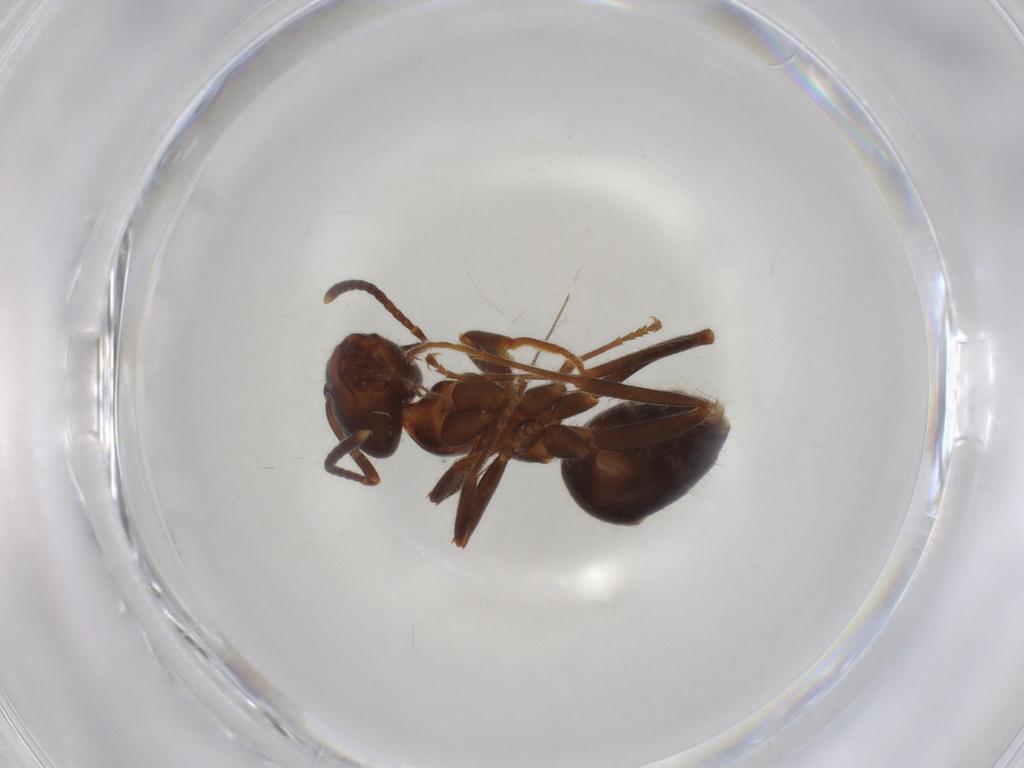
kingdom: Animalia
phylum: Arthropoda
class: Insecta
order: Hymenoptera
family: Formicidae
